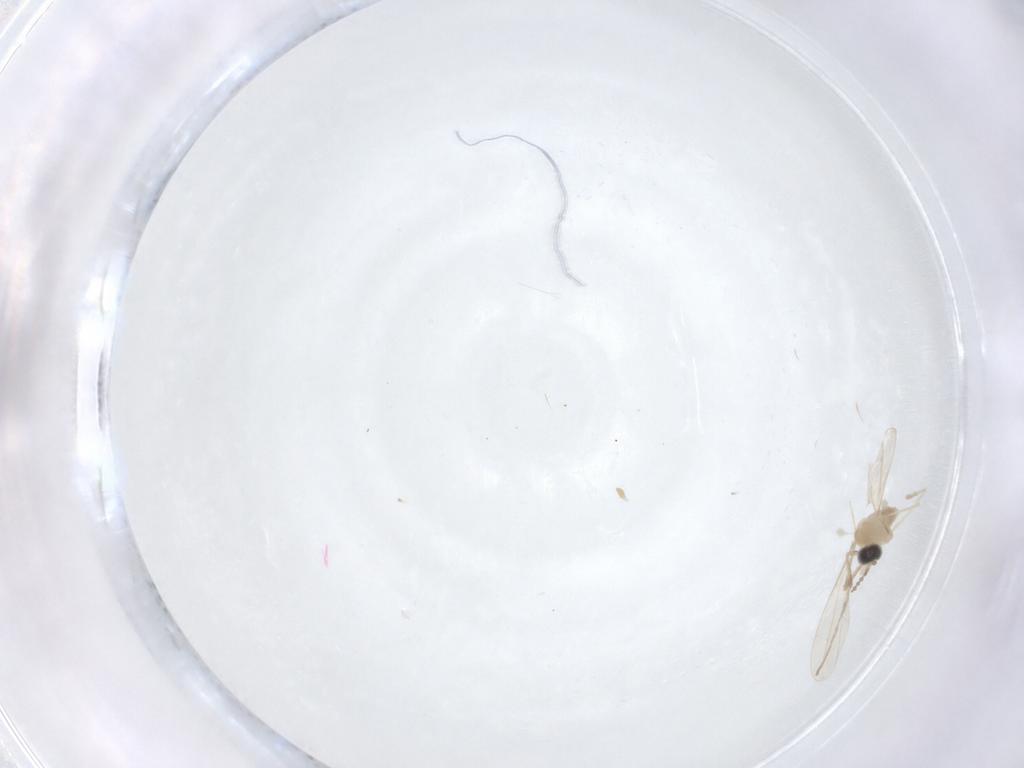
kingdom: Animalia
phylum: Arthropoda
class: Insecta
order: Diptera
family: Cecidomyiidae
